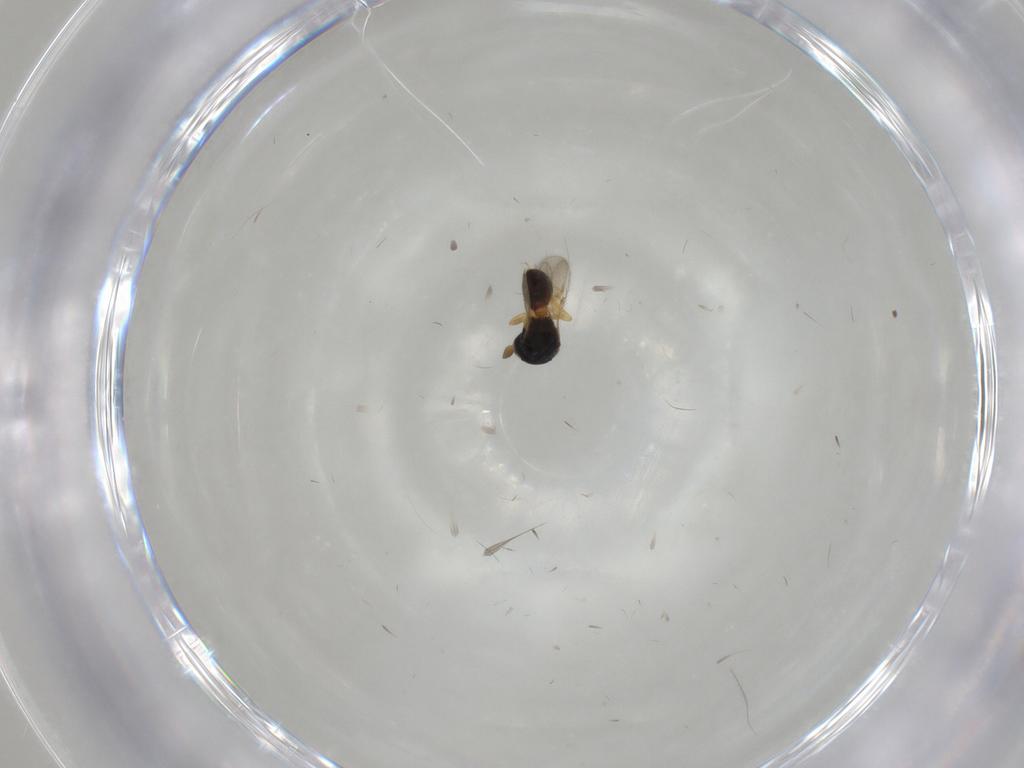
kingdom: Animalia
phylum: Arthropoda
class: Insecta
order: Hymenoptera
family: Scelionidae
